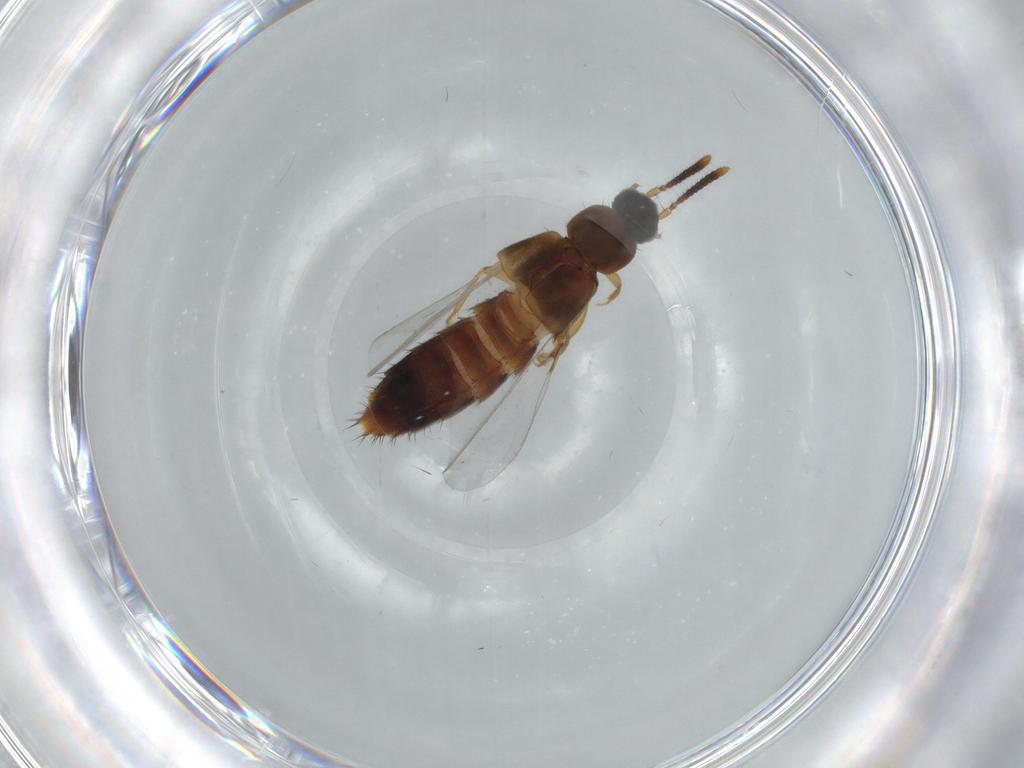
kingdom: Animalia
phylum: Arthropoda
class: Insecta
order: Coleoptera
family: Staphylinidae
